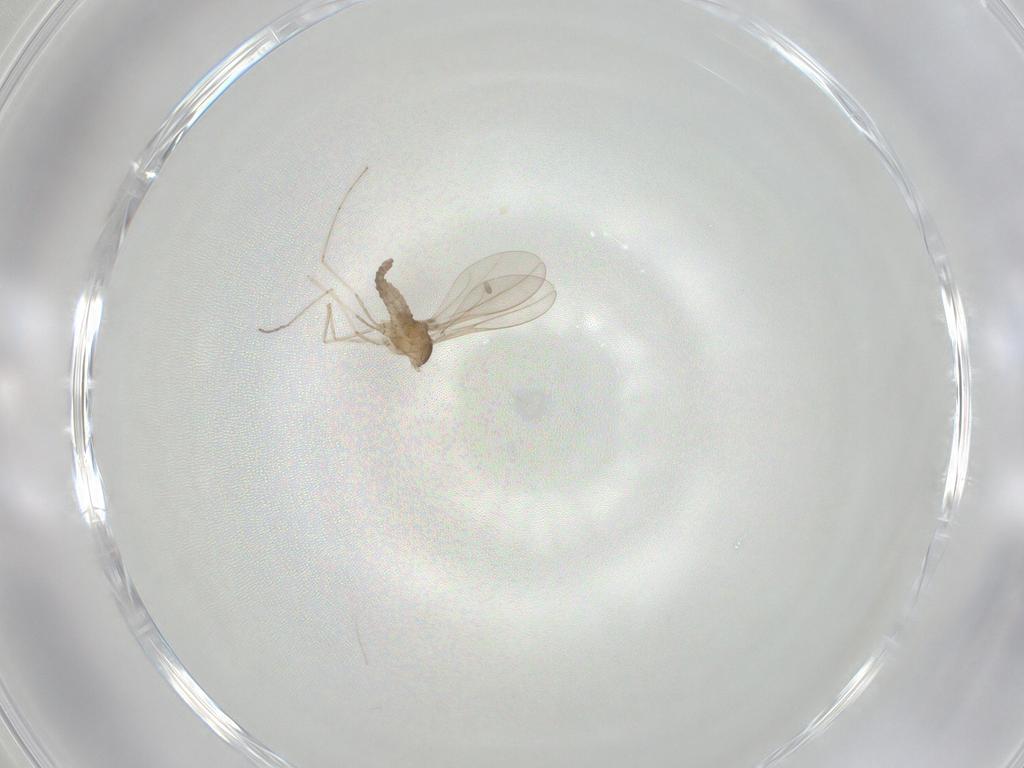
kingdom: Animalia
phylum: Arthropoda
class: Insecta
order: Diptera
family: Cecidomyiidae
